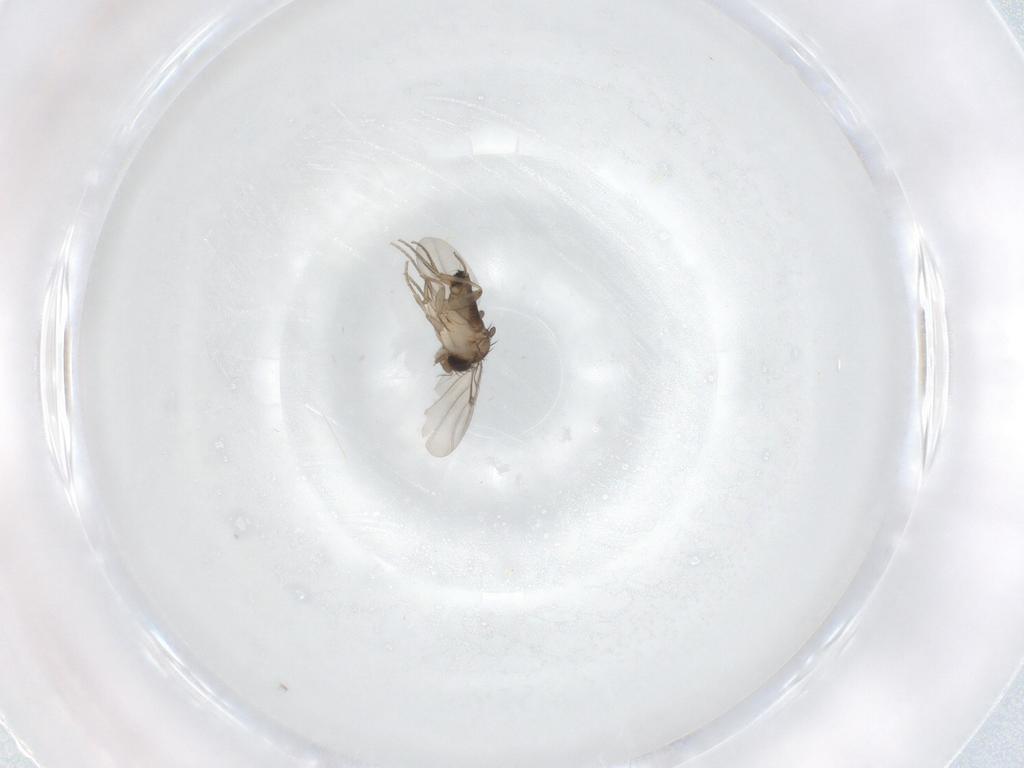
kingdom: Animalia
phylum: Arthropoda
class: Insecta
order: Diptera
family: Phoridae
